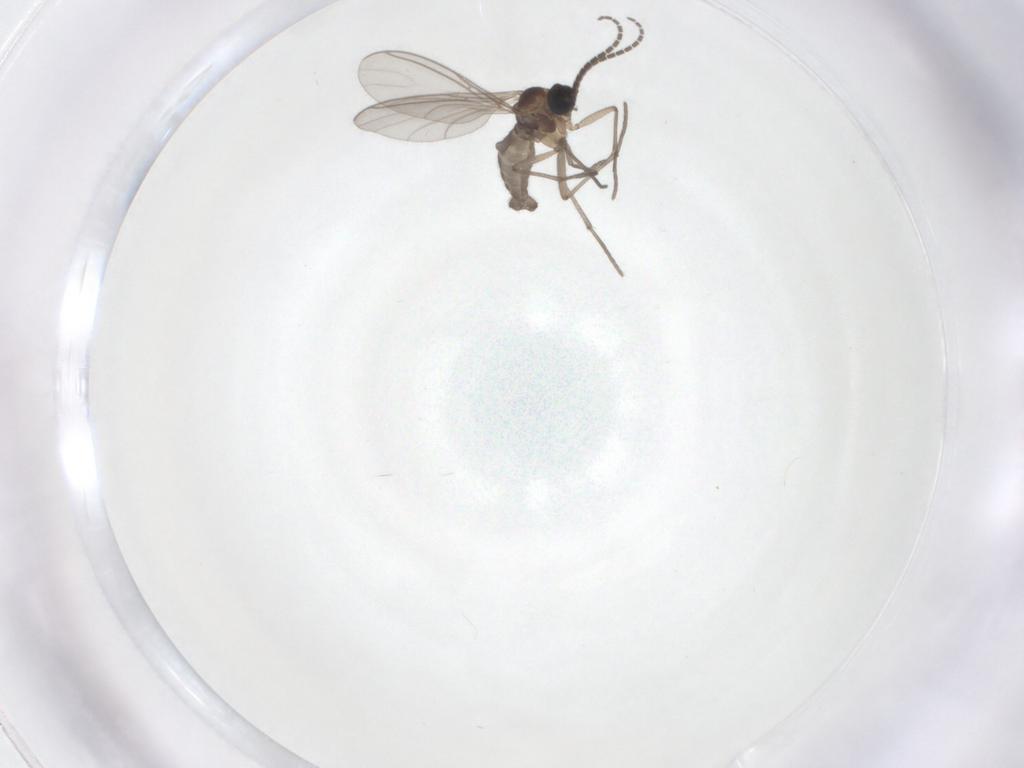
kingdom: Animalia
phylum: Arthropoda
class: Insecta
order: Diptera
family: Sciaridae
